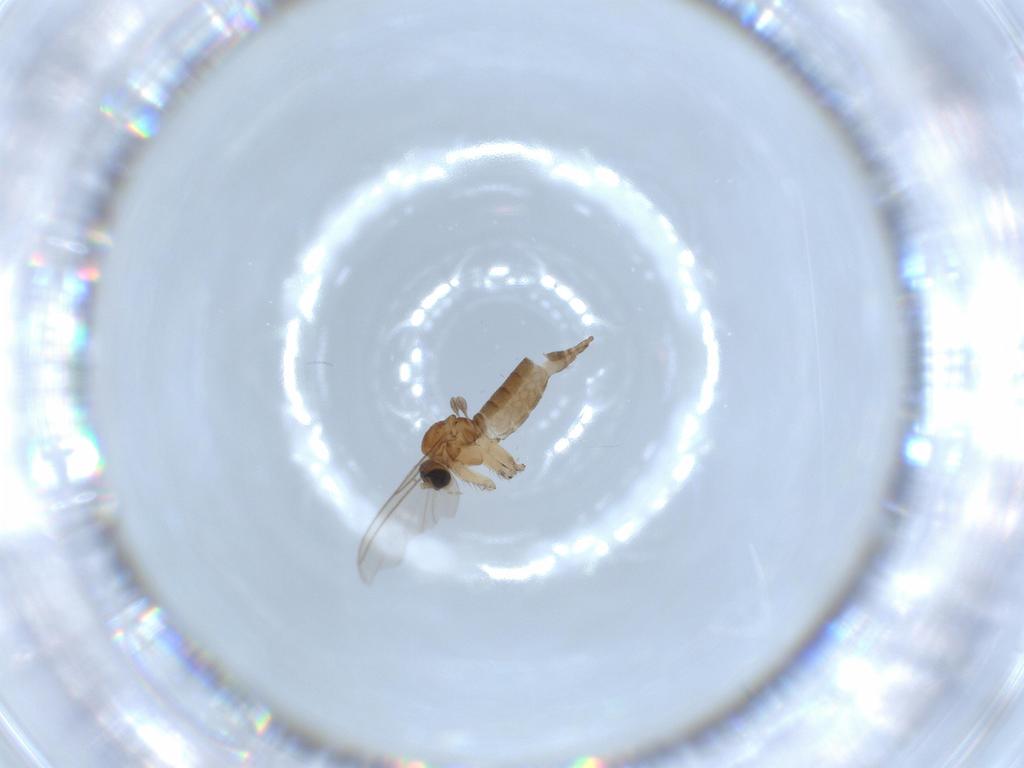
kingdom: Animalia
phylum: Arthropoda
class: Insecta
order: Diptera
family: Sciaridae
